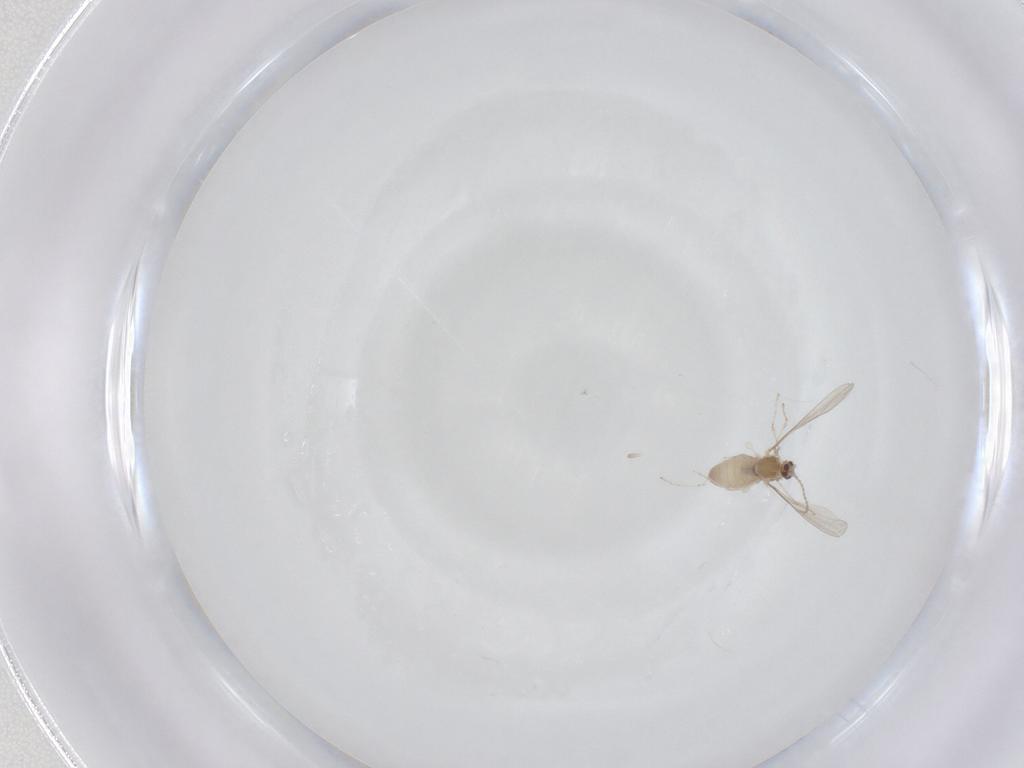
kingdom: Animalia
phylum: Arthropoda
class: Insecta
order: Diptera
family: Cecidomyiidae
